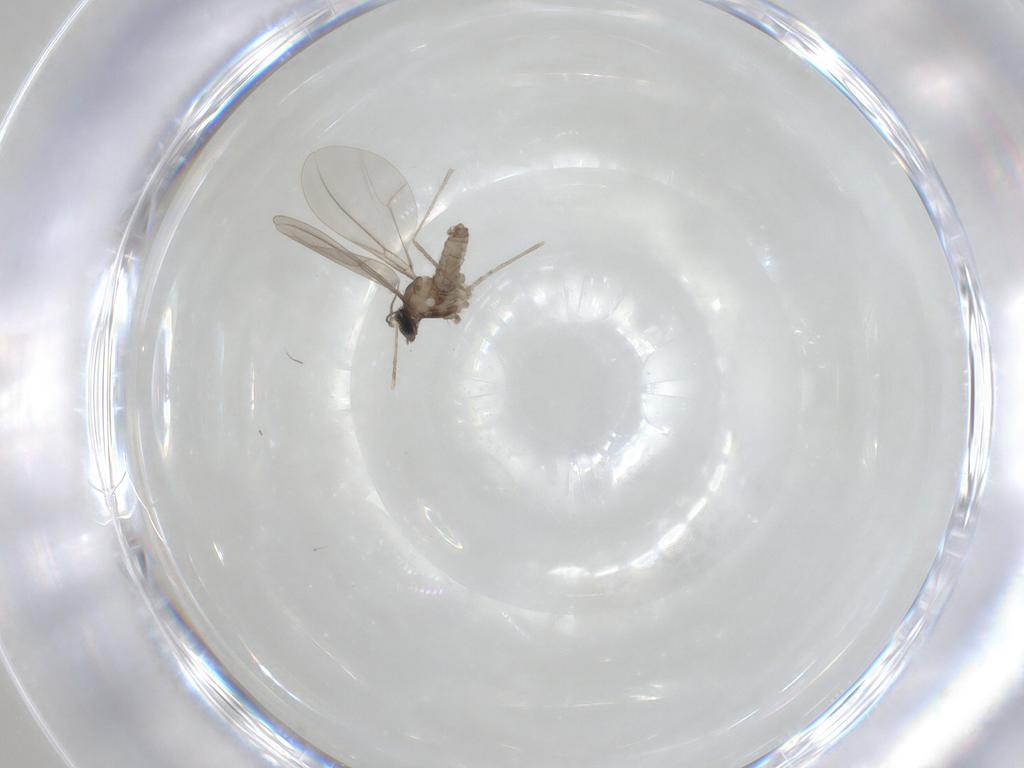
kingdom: Animalia
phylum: Arthropoda
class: Insecta
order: Diptera
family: Cecidomyiidae
